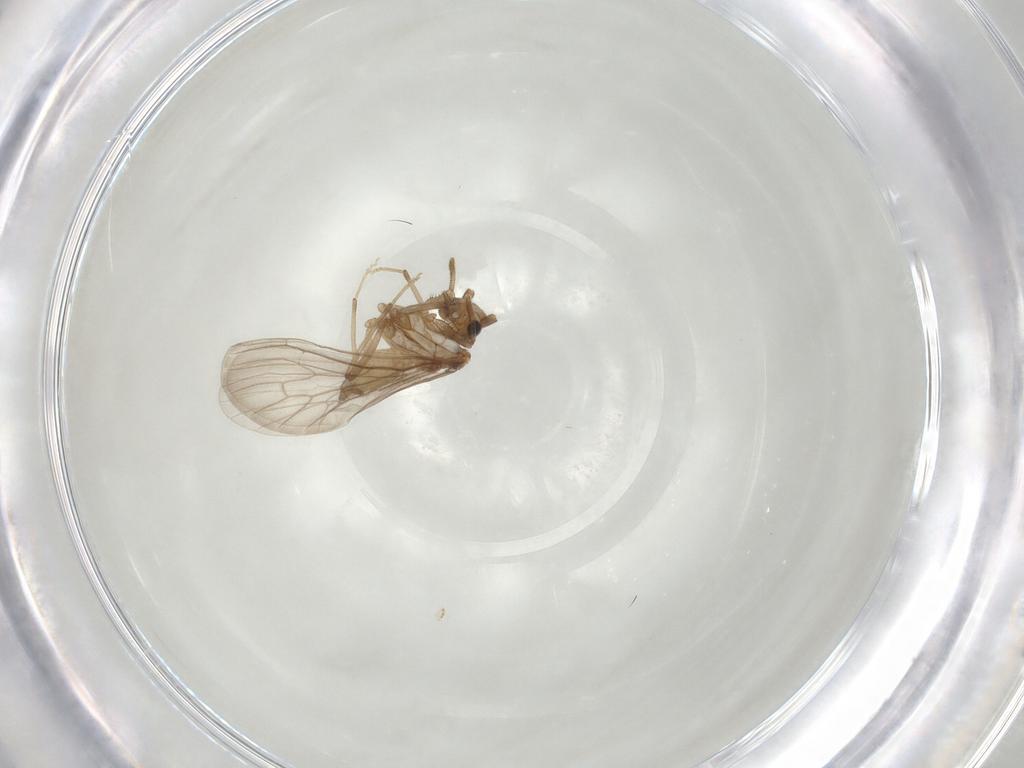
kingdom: Animalia
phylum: Arthropoda
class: Insecta
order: Neuroptera
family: Coniopterygidae
